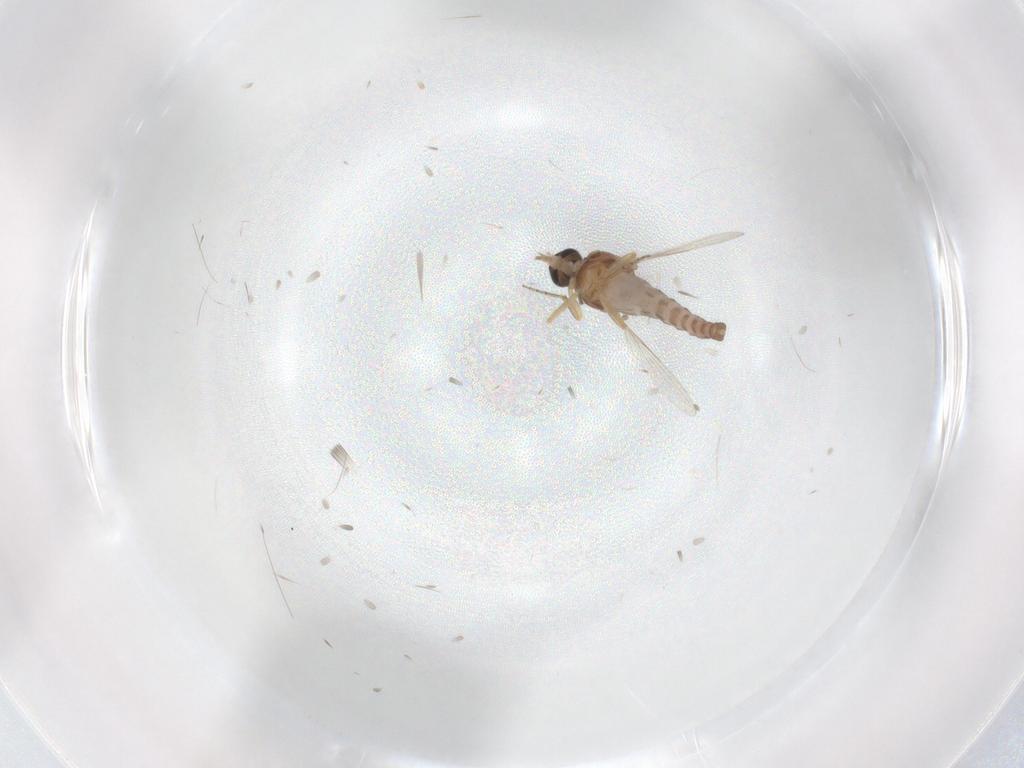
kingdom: Animalia
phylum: Arthropoda
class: Insecta
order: Diptera
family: Ceratopogonidae
